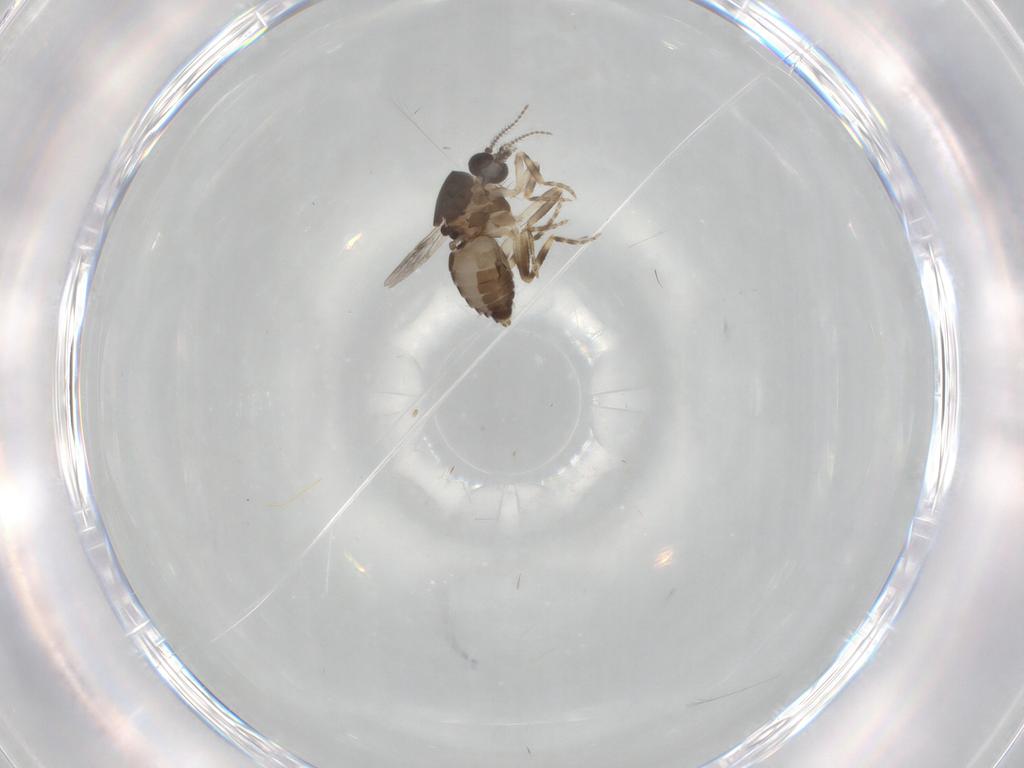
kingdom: Animalia
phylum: Arthropoda
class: Insecta
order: Diptera
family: Ceratopogonidae
